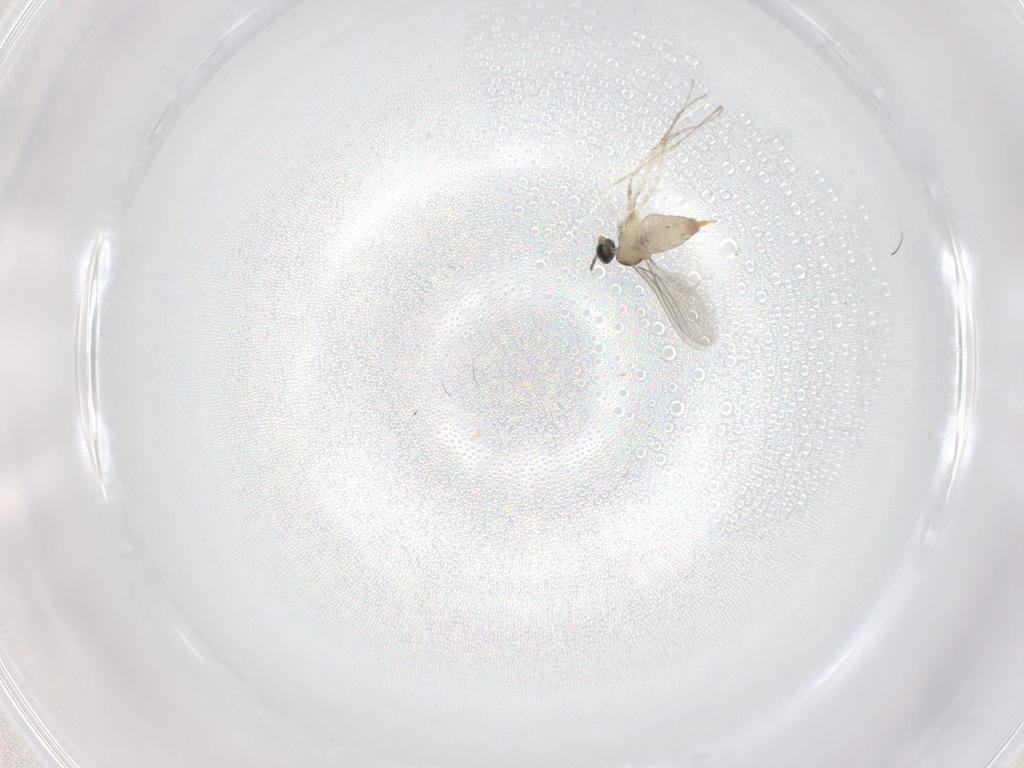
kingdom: Animalia
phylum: Arthropoda
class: Insecta
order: Diptera
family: Cecidomyiidae
